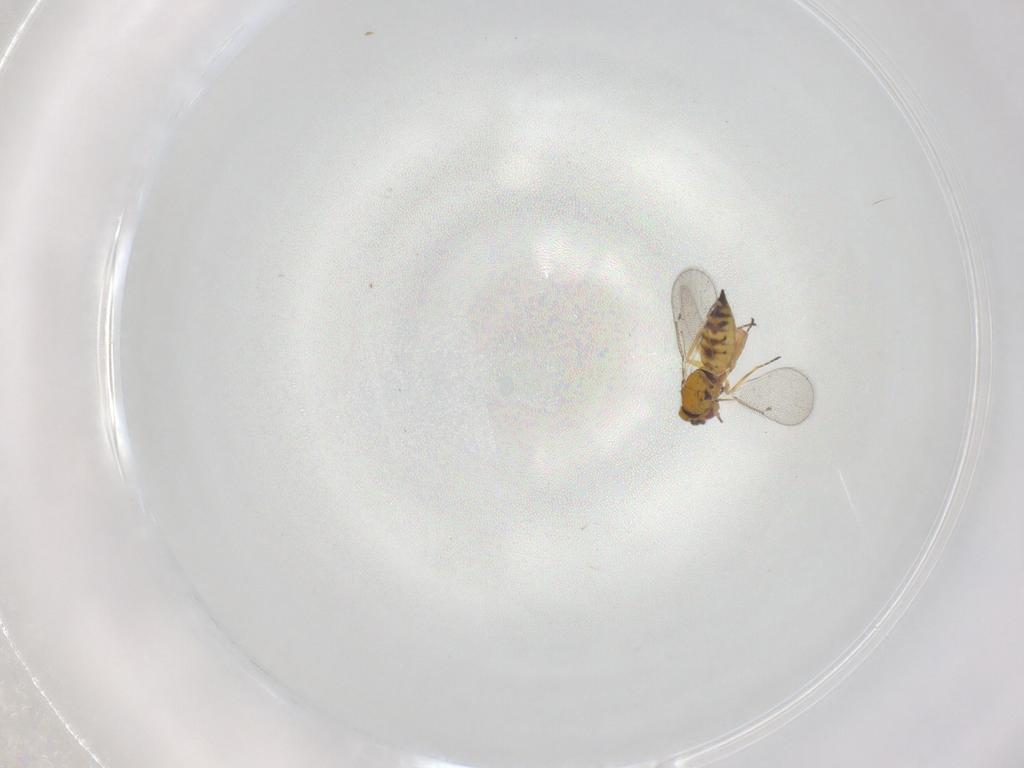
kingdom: Animalia
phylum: Arthropoda
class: Insecta
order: Hymenoptera
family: Eulophidae
